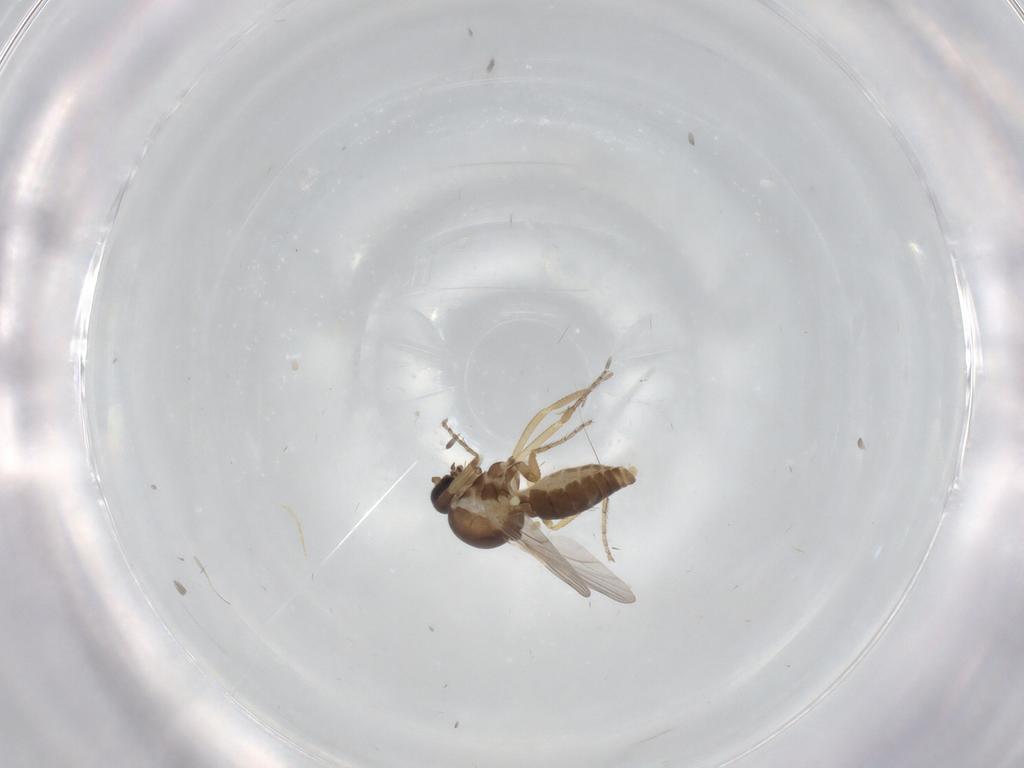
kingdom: Animalia
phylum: Arthropoda
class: Insecta
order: Diptera
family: Ceratopogonidae
